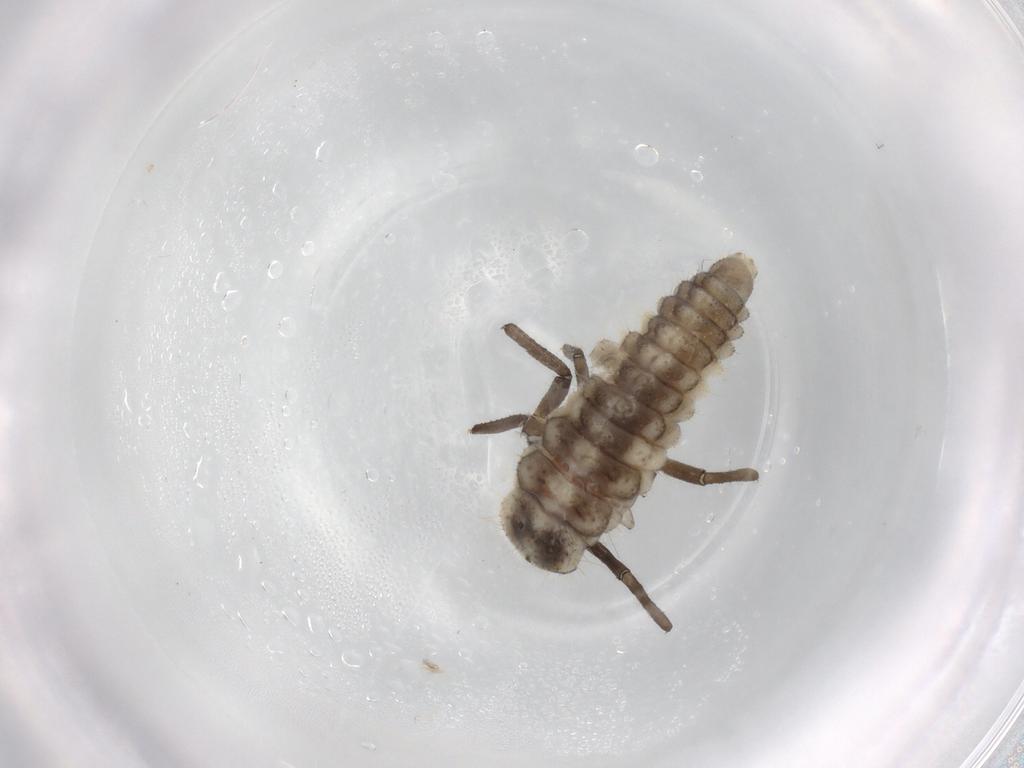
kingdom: Animalia
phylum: Arthropoda
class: Insecta
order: Coleoptera
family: Coccinellidae
